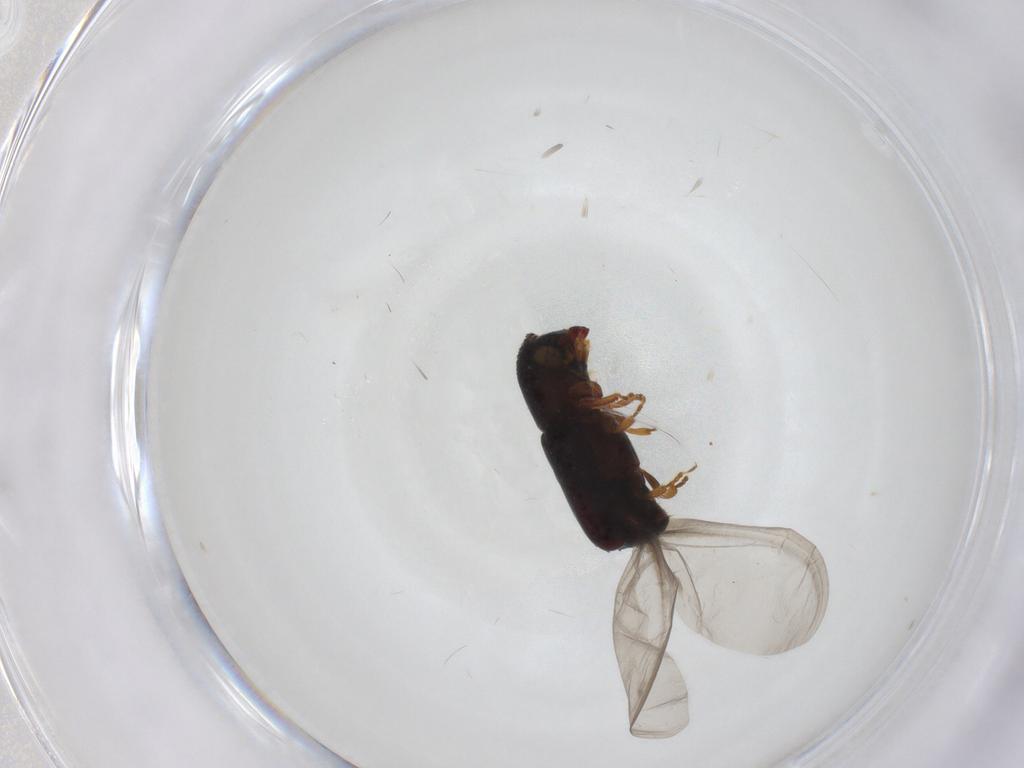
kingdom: Animalia
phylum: Arthropoda
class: Insecta
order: Coleoptera
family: Curculionidae
